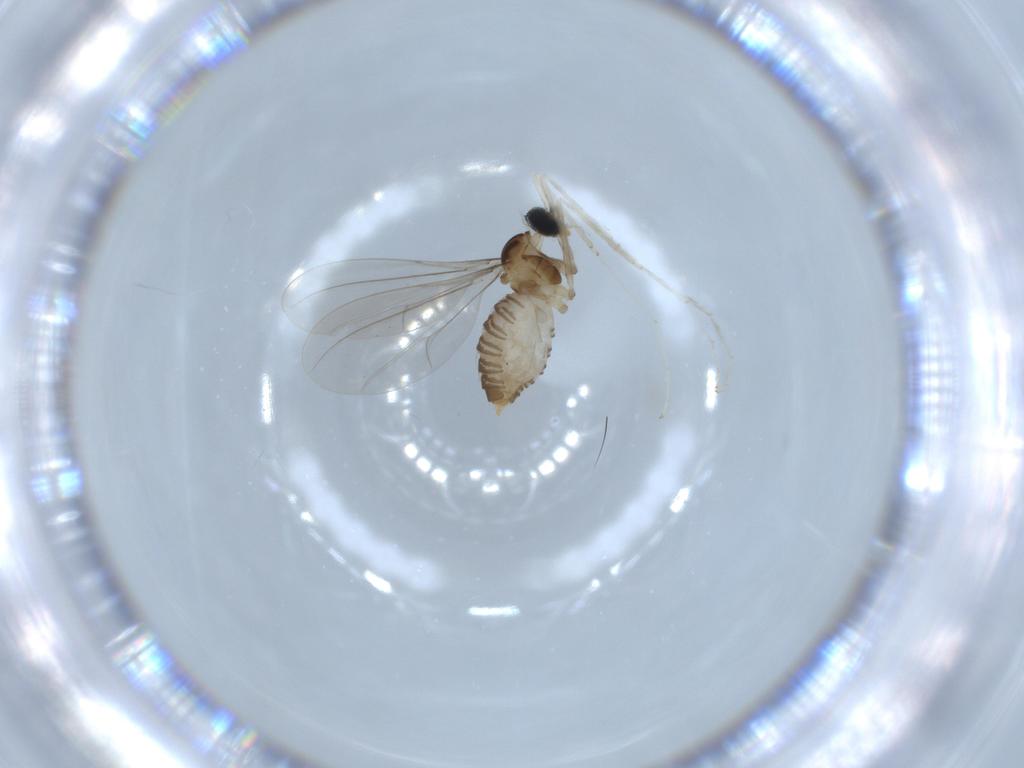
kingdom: Animalia
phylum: Arthropoda
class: Insecta
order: Diptera
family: Cecidomyiidae
